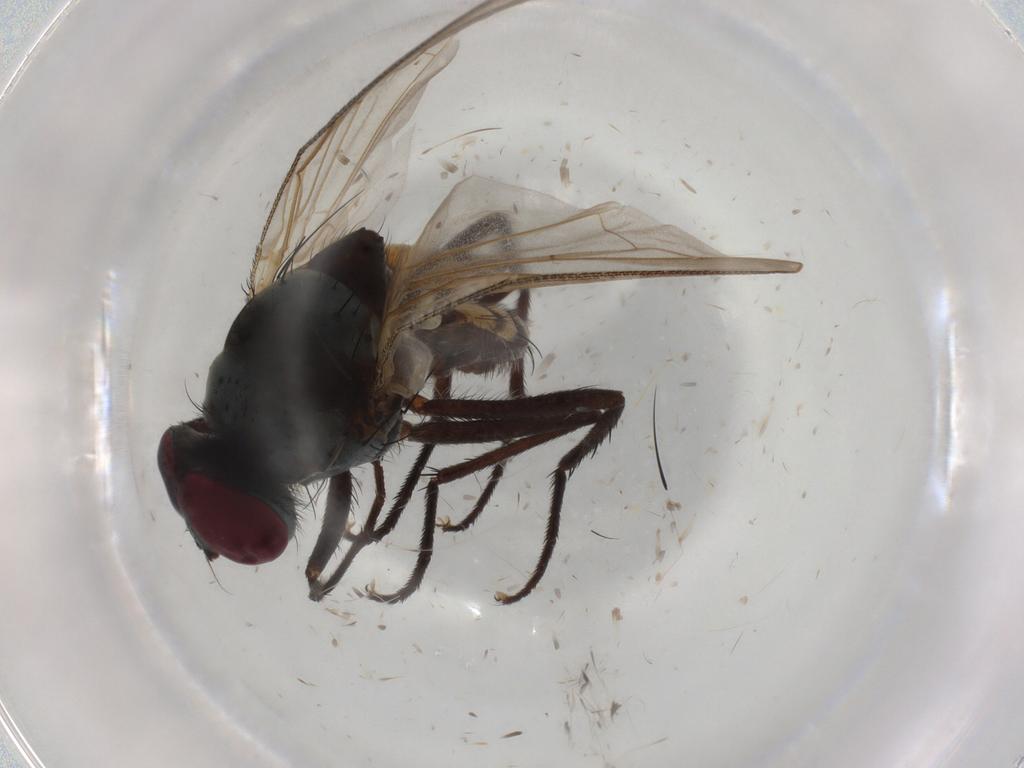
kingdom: Animalia
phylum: Arthropoda
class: Insecta
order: Diptera
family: Anthomyiidae
